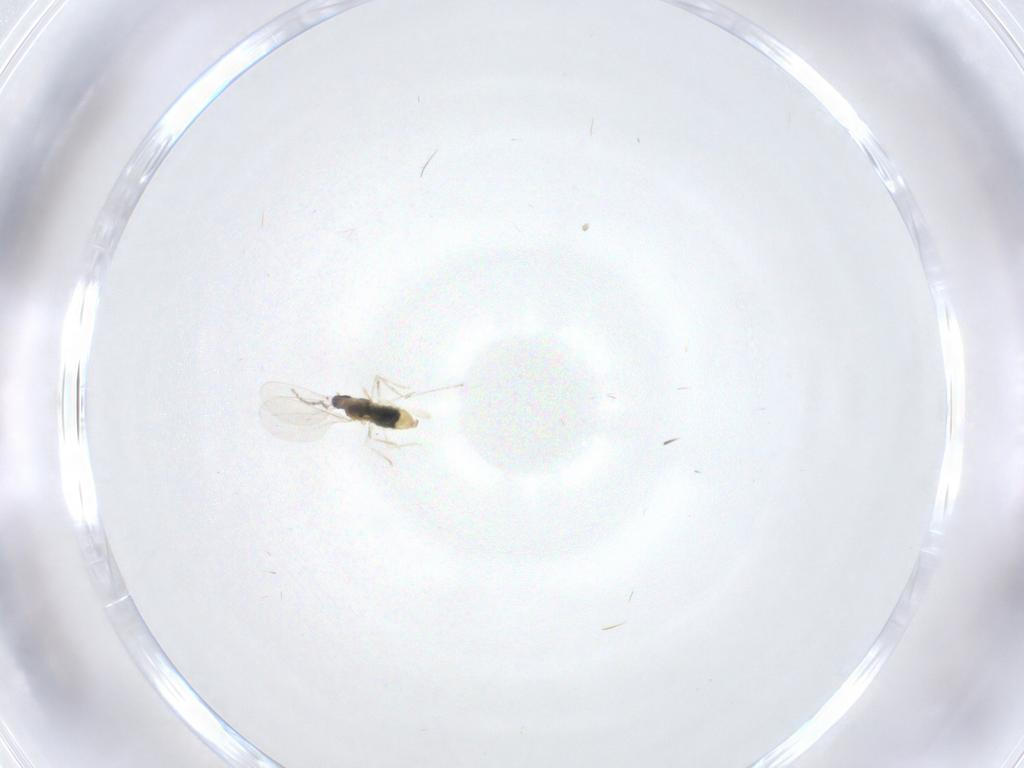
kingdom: Animalia
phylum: Arthropoda
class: Insecta
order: Diptera
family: Cecidomyiidae
